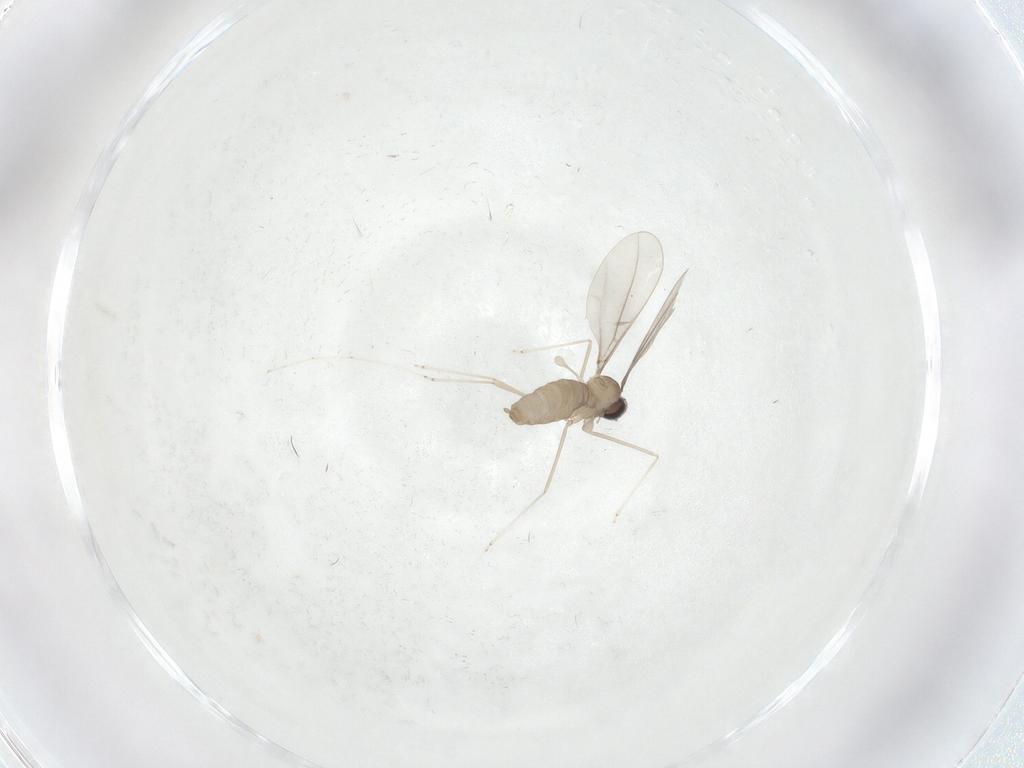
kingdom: Animalia
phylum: Arthropoda
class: Insecta
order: Diptera
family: Cecidomyiidae
